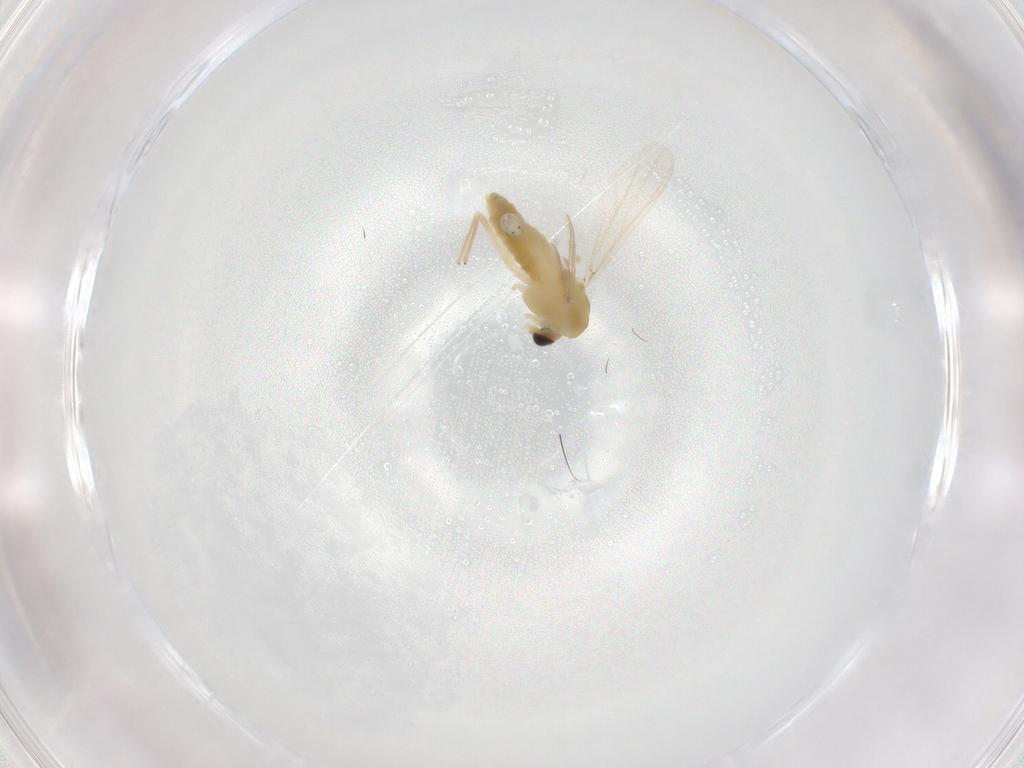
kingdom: Animalia
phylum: Arthropoda
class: Insecta
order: Diptera
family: Chironomidae
